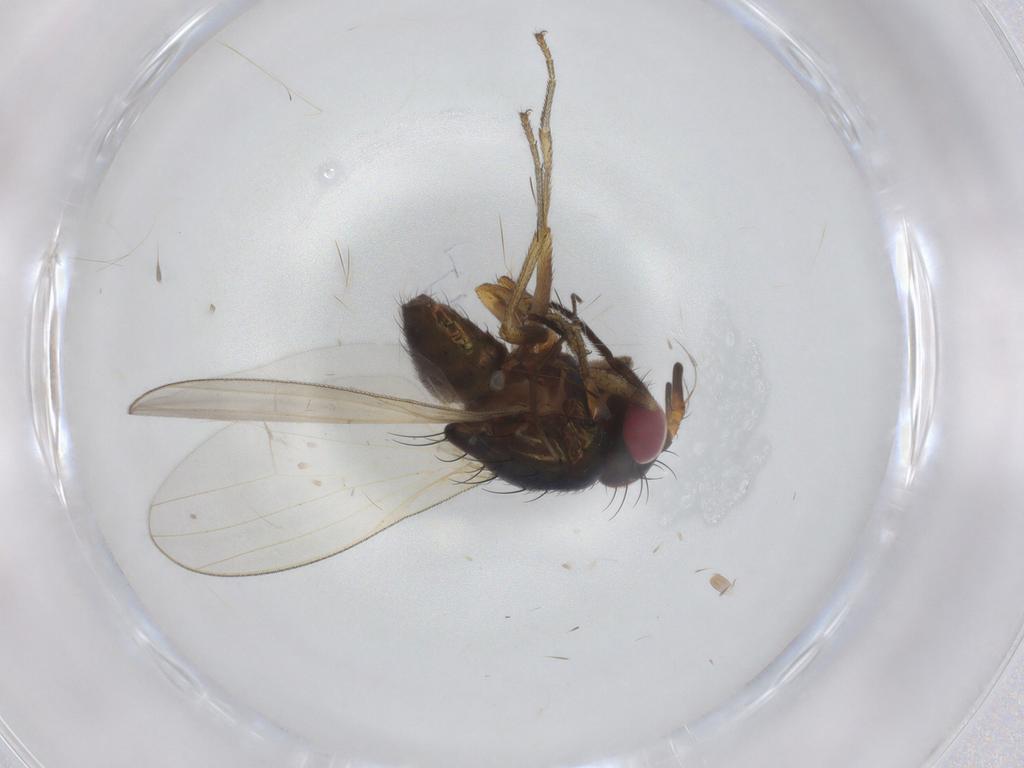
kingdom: Animalia
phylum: Arthropoda
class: Insecta
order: Diptera
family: Lauxaniidae
